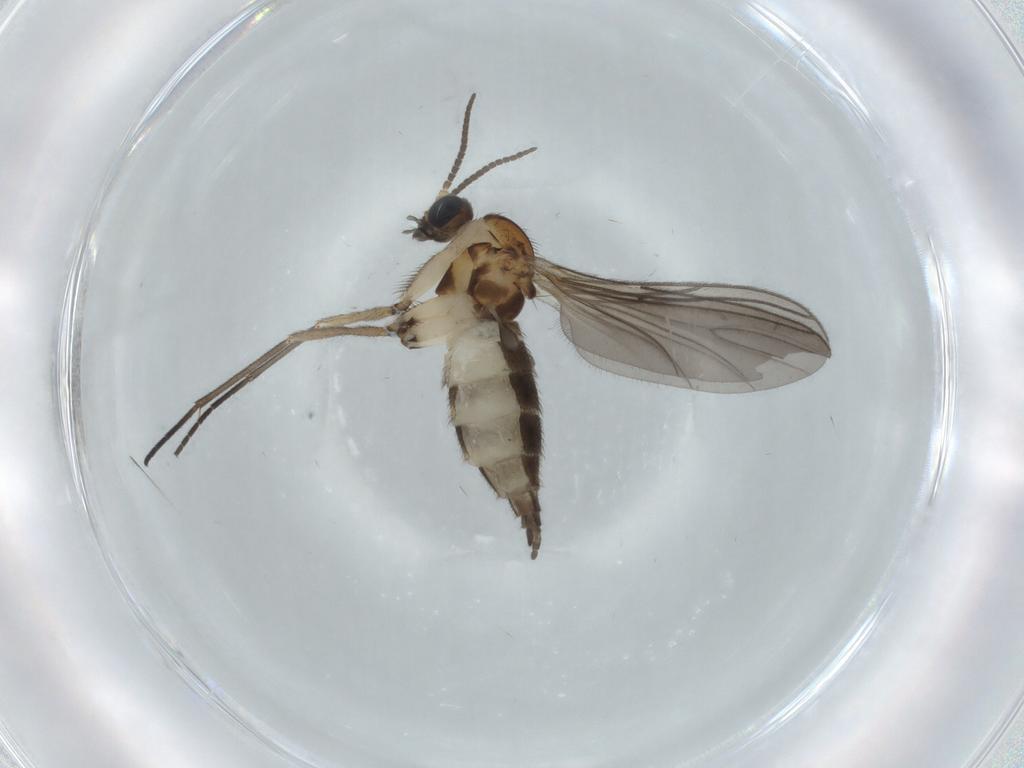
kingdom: Animalia
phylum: Arthropoda
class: Insecta
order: Diptera
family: Sciaridae
